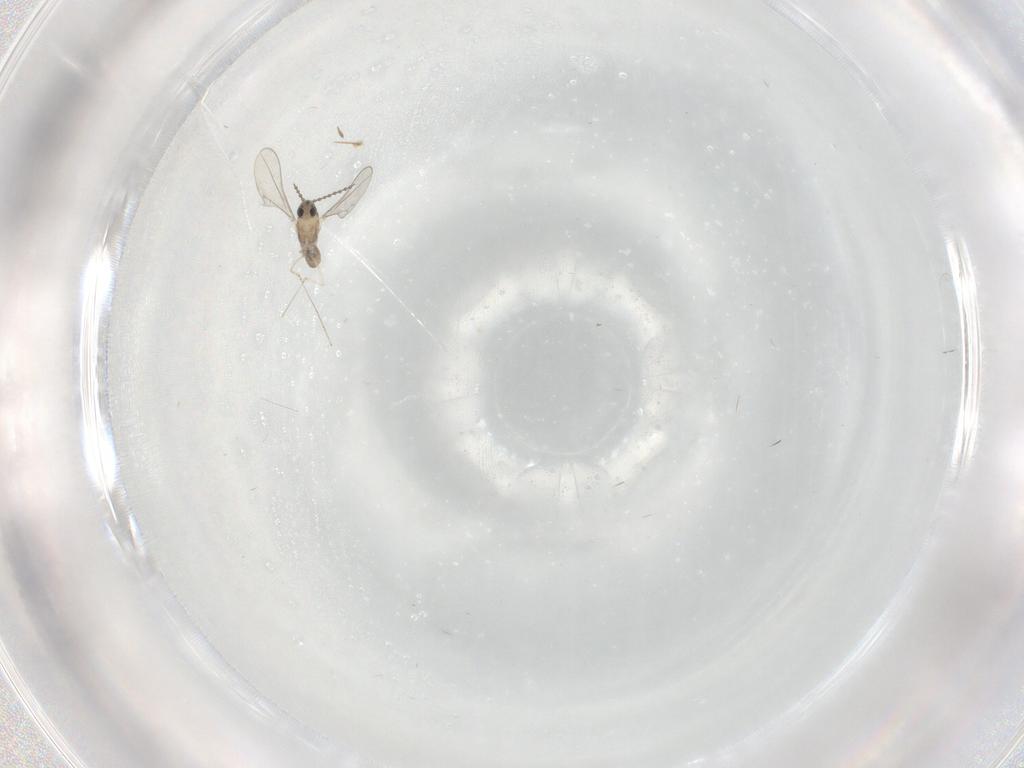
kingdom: Animalia
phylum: Arthropoda
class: Insecta
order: Diptera
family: Cecidomyiidae
